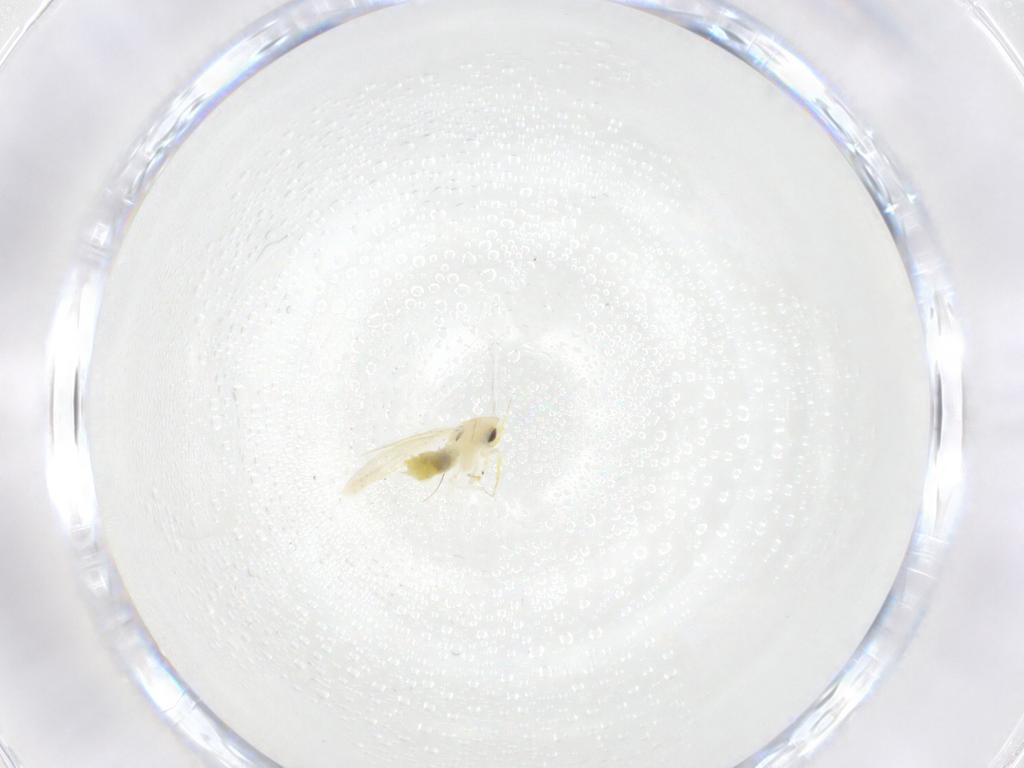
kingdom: Animalia
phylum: Arthropoda
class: Insecta
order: Hemiptera
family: Aleyrodidae
